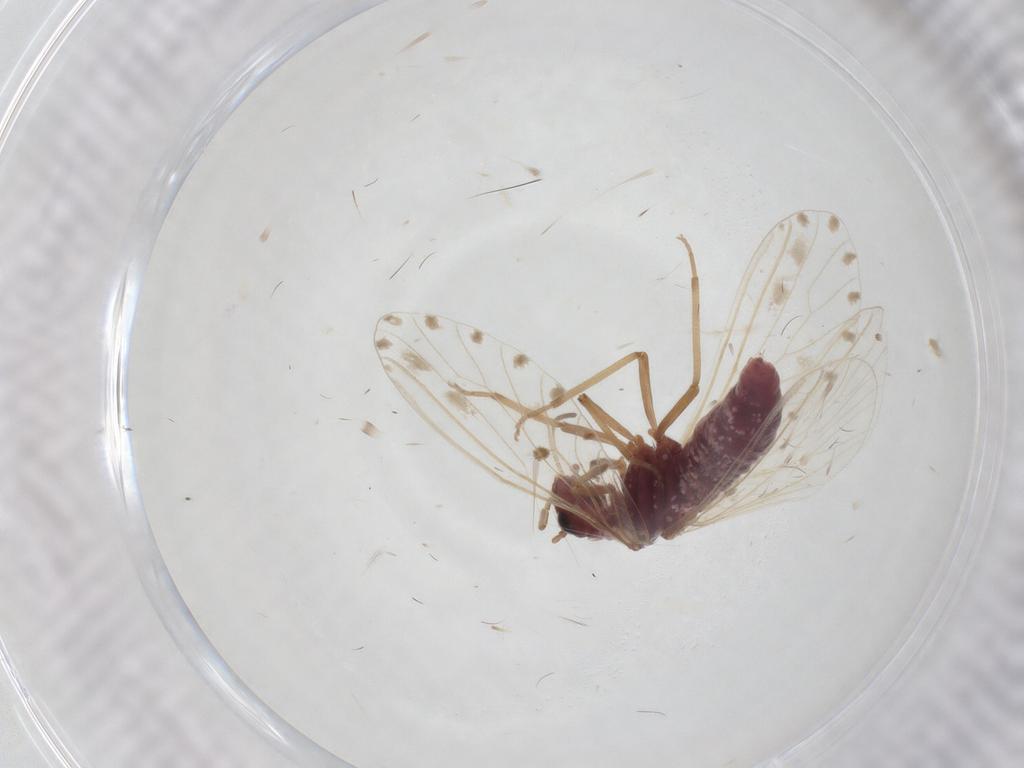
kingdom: Animalia
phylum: Arthropoda
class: Insecta
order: Neuroptera
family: Coniopterygidae
